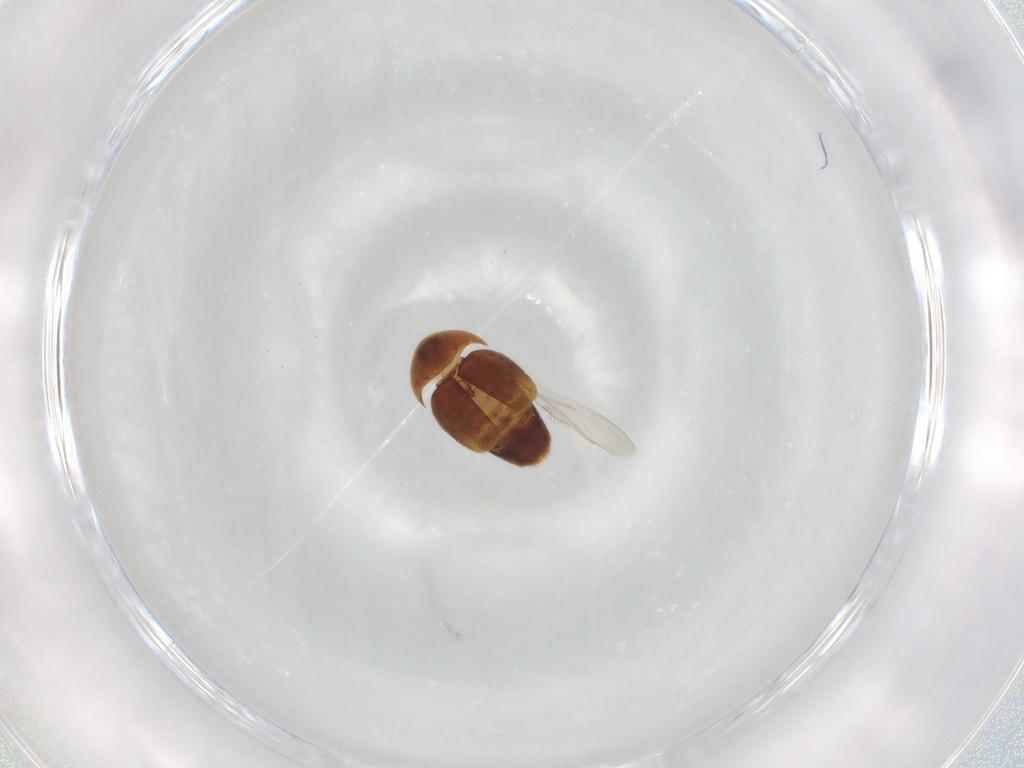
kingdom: Animalia
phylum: Arthropoda
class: Insecta
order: Coleoptera
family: Corylophidae
